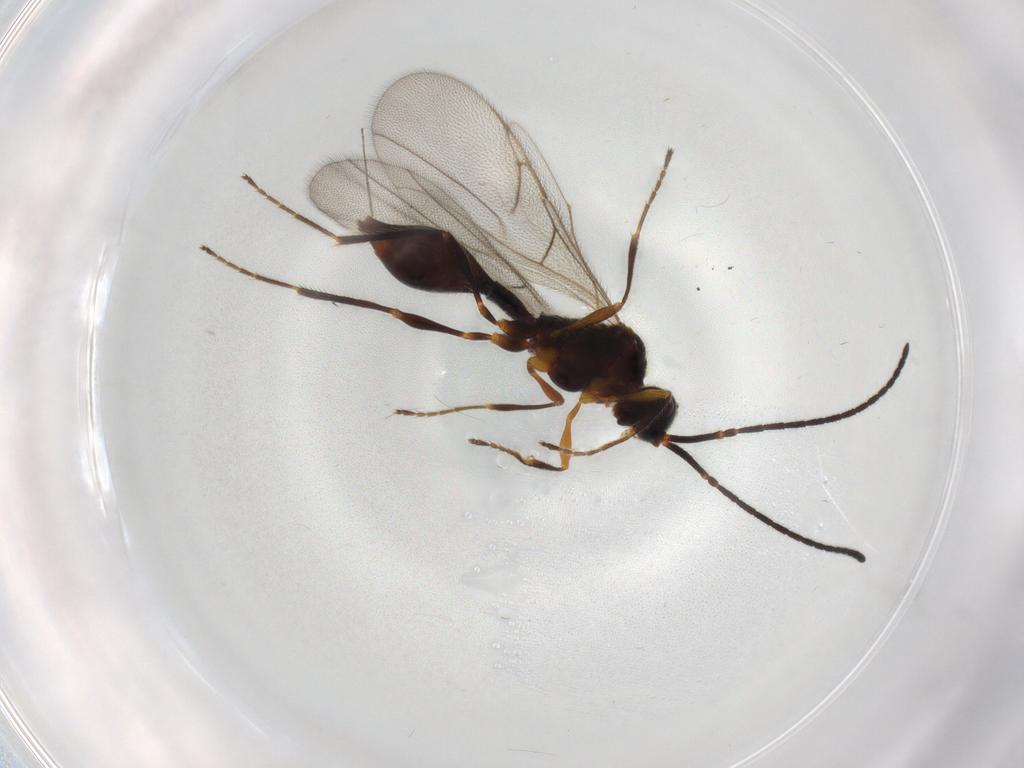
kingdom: Animalia
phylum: Arthropoda
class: Insecta
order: Hymenoptera
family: Diapriidae
